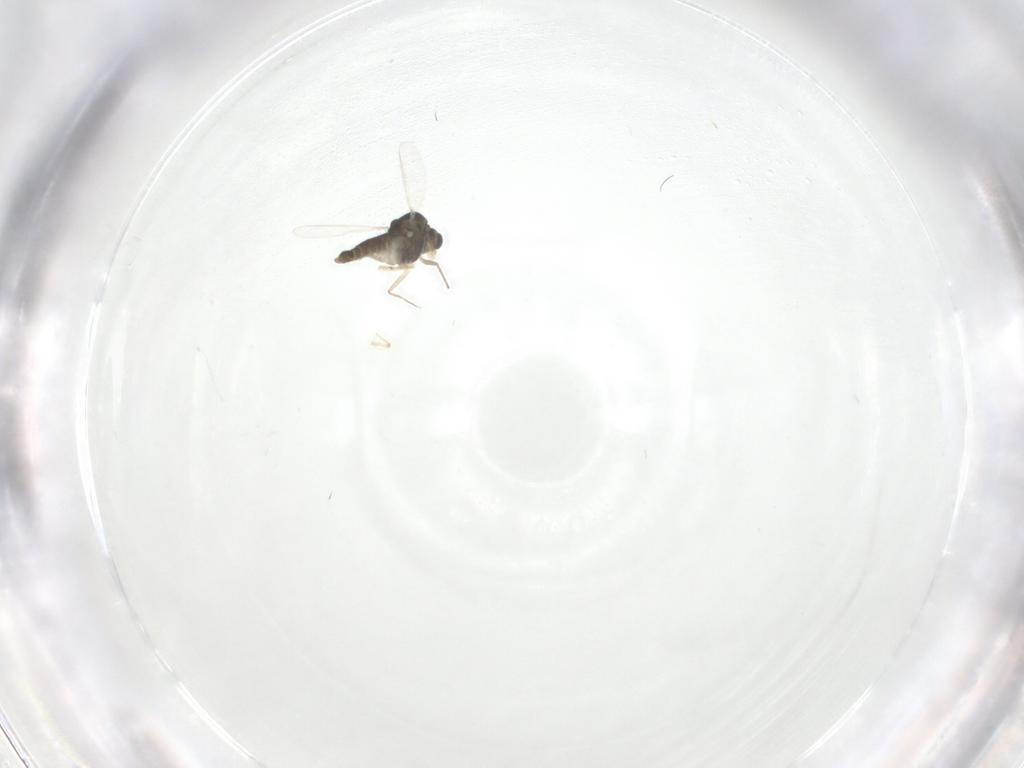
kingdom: Animalia
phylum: Arthropoda
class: Insecta
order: Diptera
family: Chironomidae
